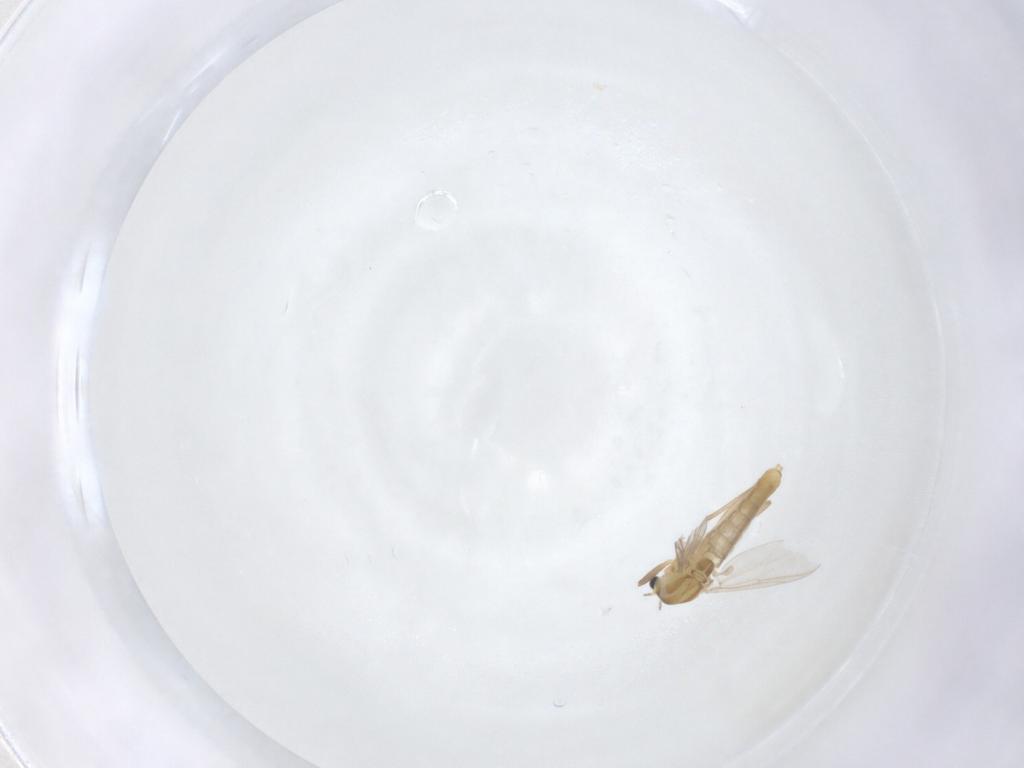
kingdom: Animalia
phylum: Arthropoda
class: Insecta
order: Diptera
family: Chironomidae
